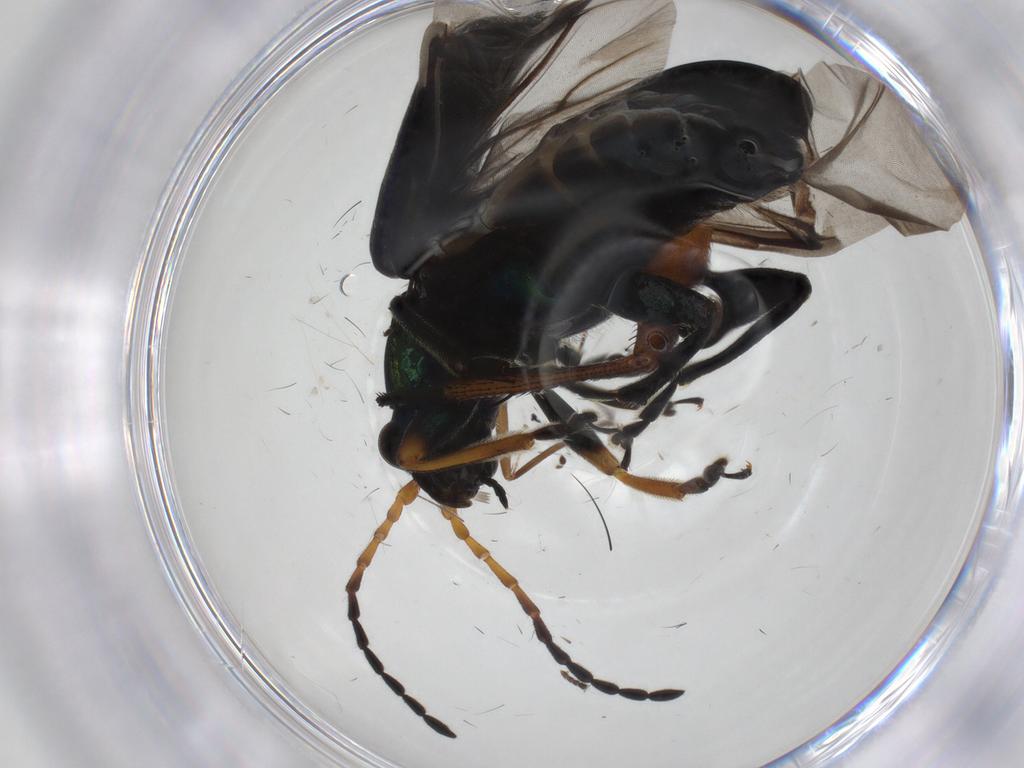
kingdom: Animalia
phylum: Arthropoda
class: Insecta
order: Coleoptera
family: Chrysomelidae
